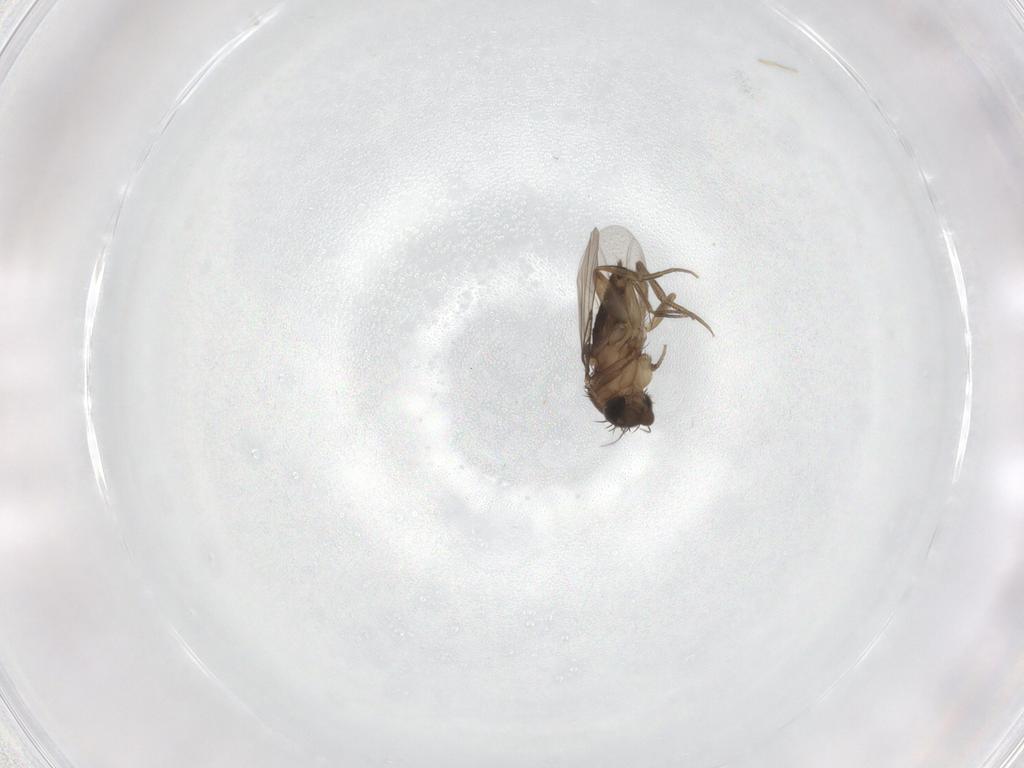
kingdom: Animalia
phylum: Arthropoda
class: Insecta
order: Diptera
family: Phoridae
